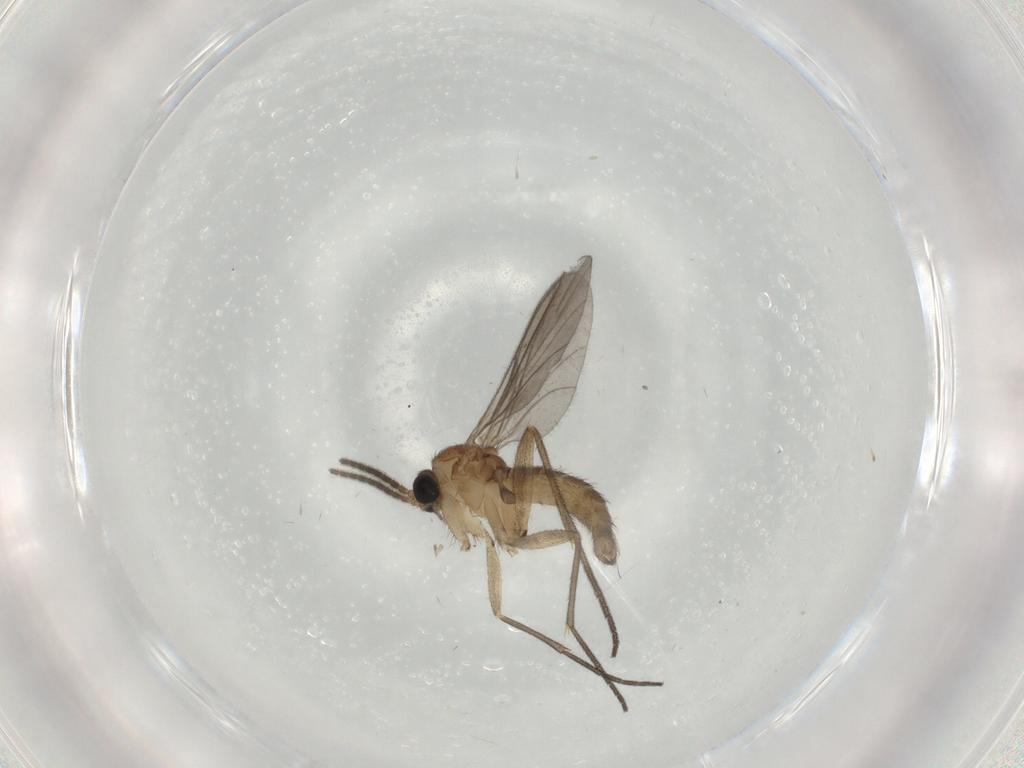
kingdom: Animalia
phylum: Arthropoda
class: Insecta
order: Diptera
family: Sciaridae
